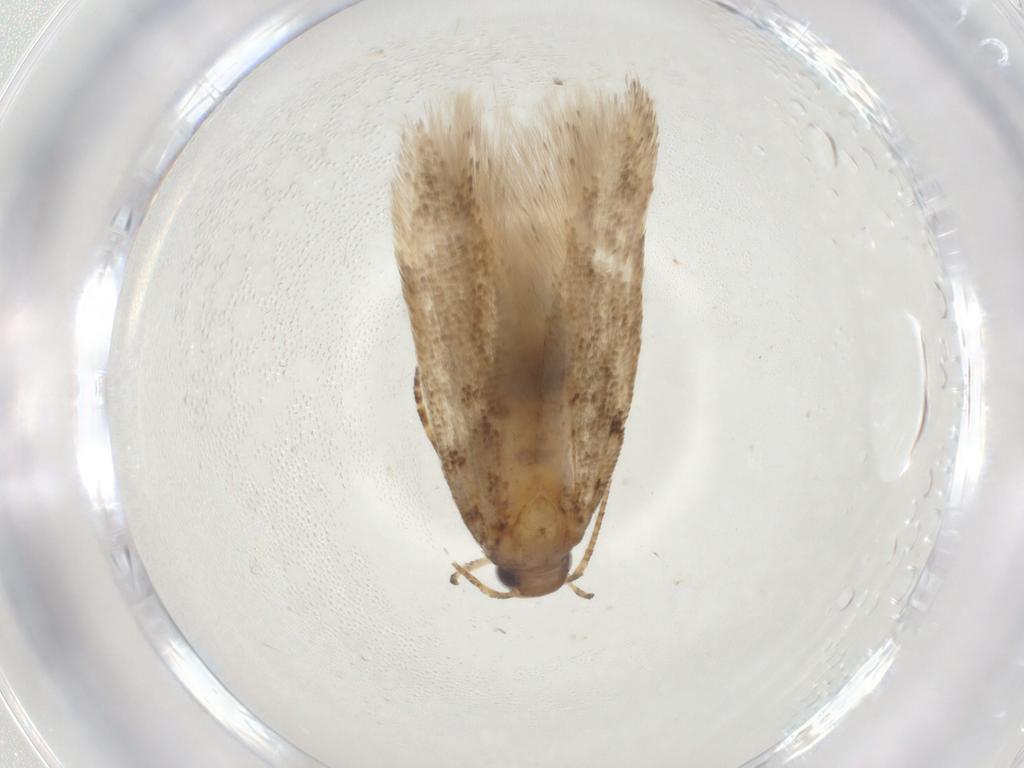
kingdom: Animalia
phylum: Arthropoda
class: Insecta
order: Lepidoptera
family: Gelechiidae
